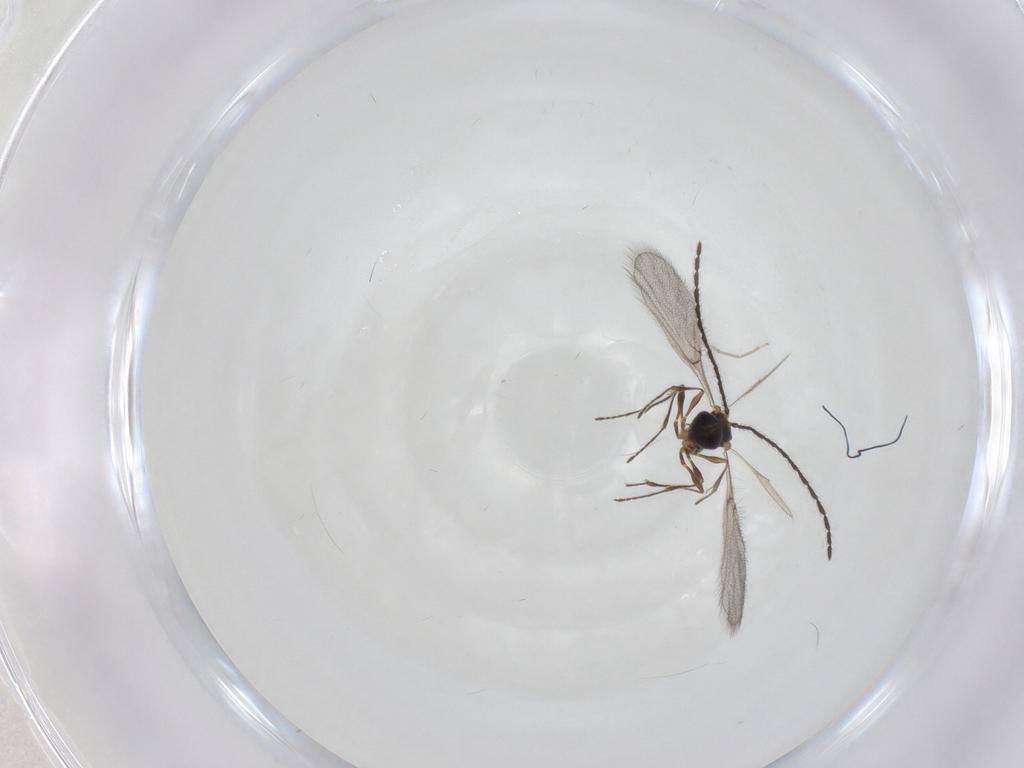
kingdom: Animalia
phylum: Arthropoda
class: Insecta
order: Hymenoptera
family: Diapriidae
